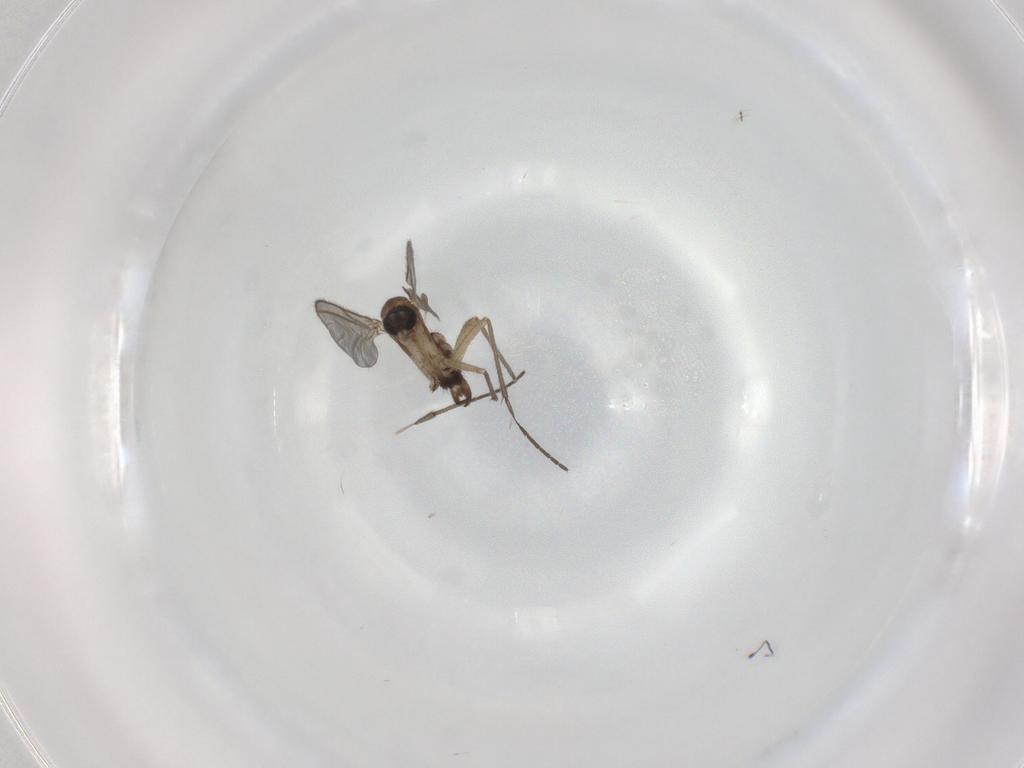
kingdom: Animalia
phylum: Arthropoda
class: Insecta
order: Diptera
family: Sciaridae
